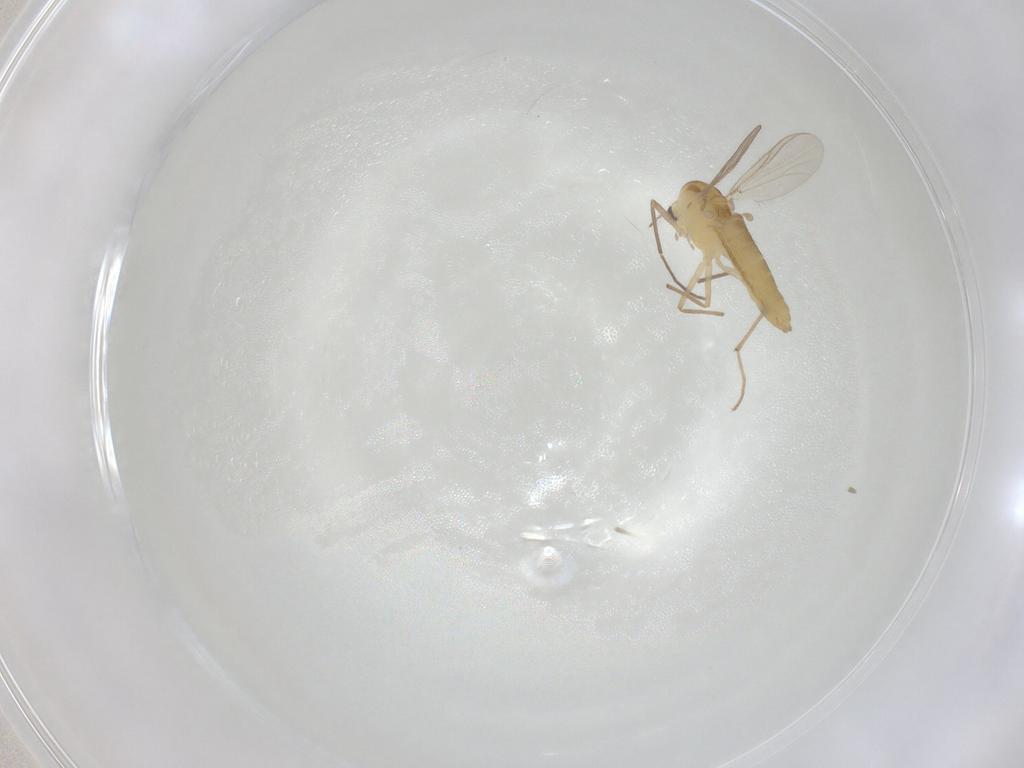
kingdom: Animalia
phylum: Arthropoda
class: Insecta
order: Diptera
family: Chironomidae
